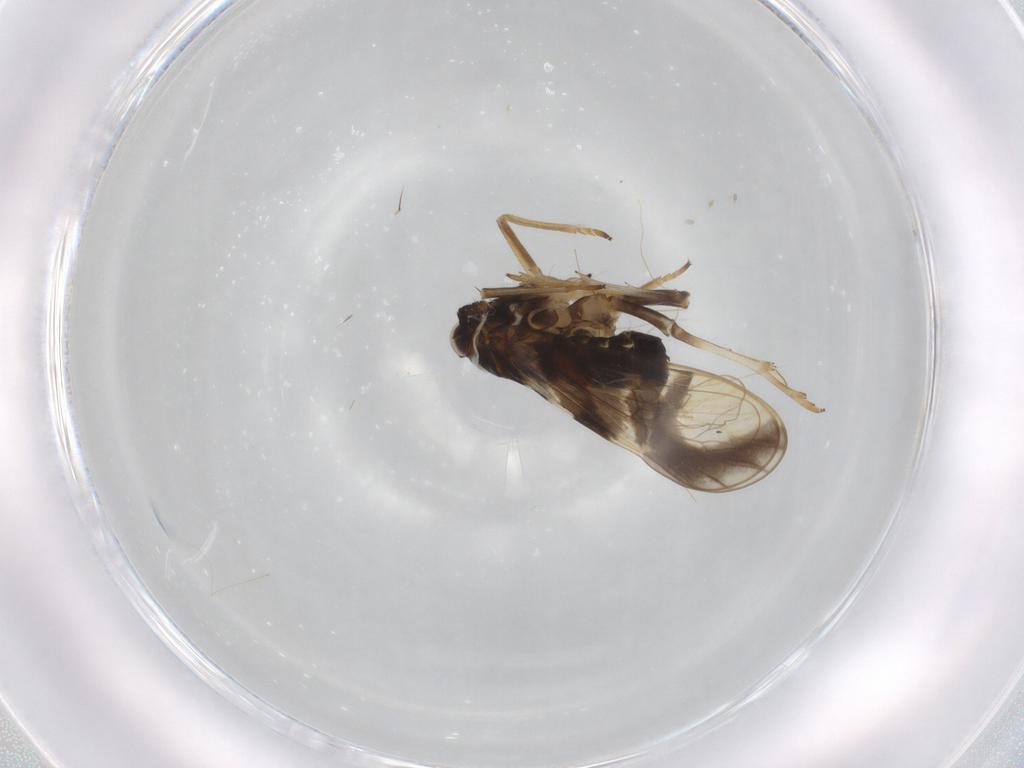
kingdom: Animalia
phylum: Arthropoda
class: Insecta
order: Hemiptera
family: Delphacidae
